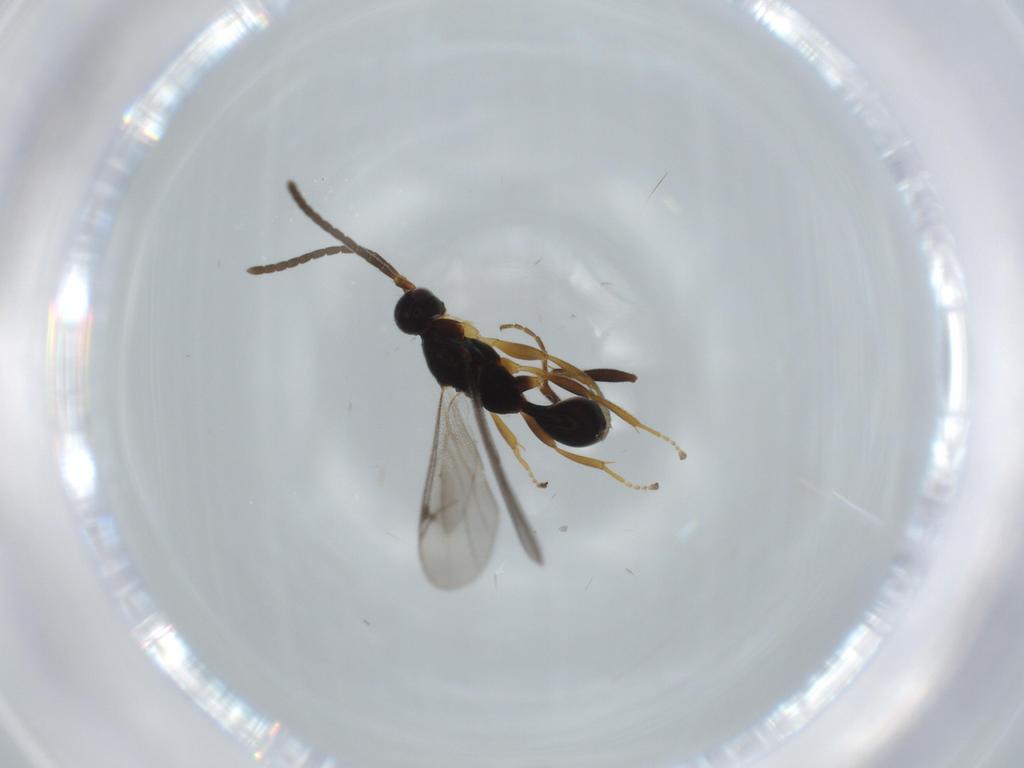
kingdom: Animalia
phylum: Arthropoda
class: Insecta
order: Hymenoptera
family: Proctotrupidae
